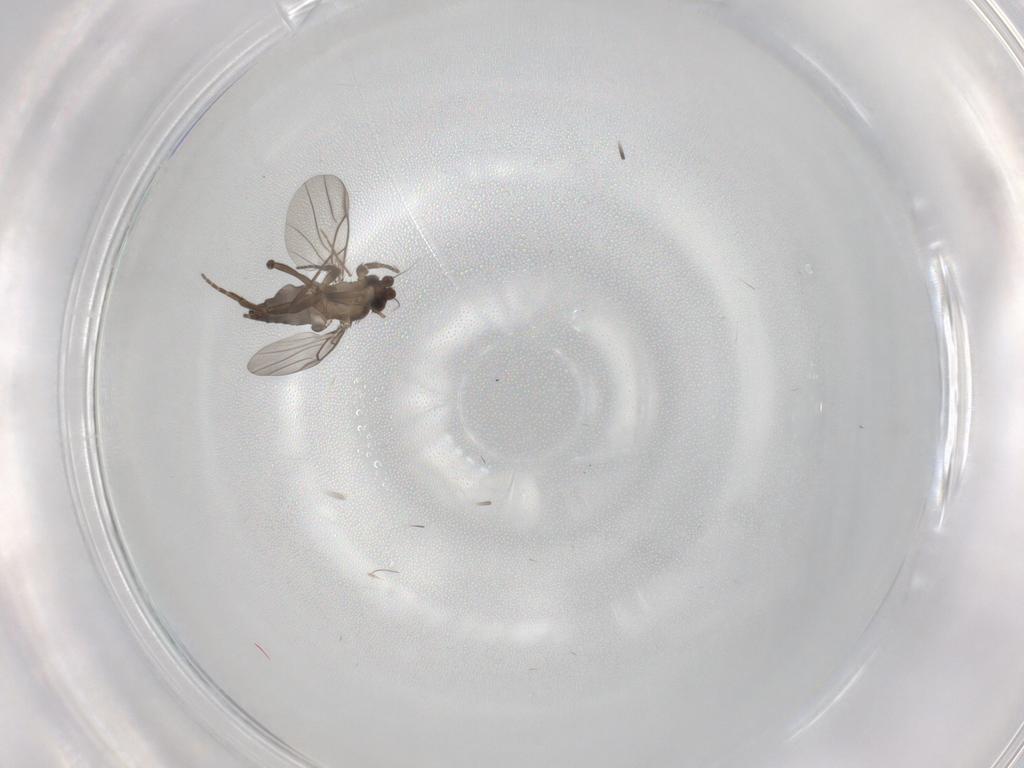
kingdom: Animalia
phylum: Arthropoda
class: Insecta
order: Diptera
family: Ceratopogonidae
